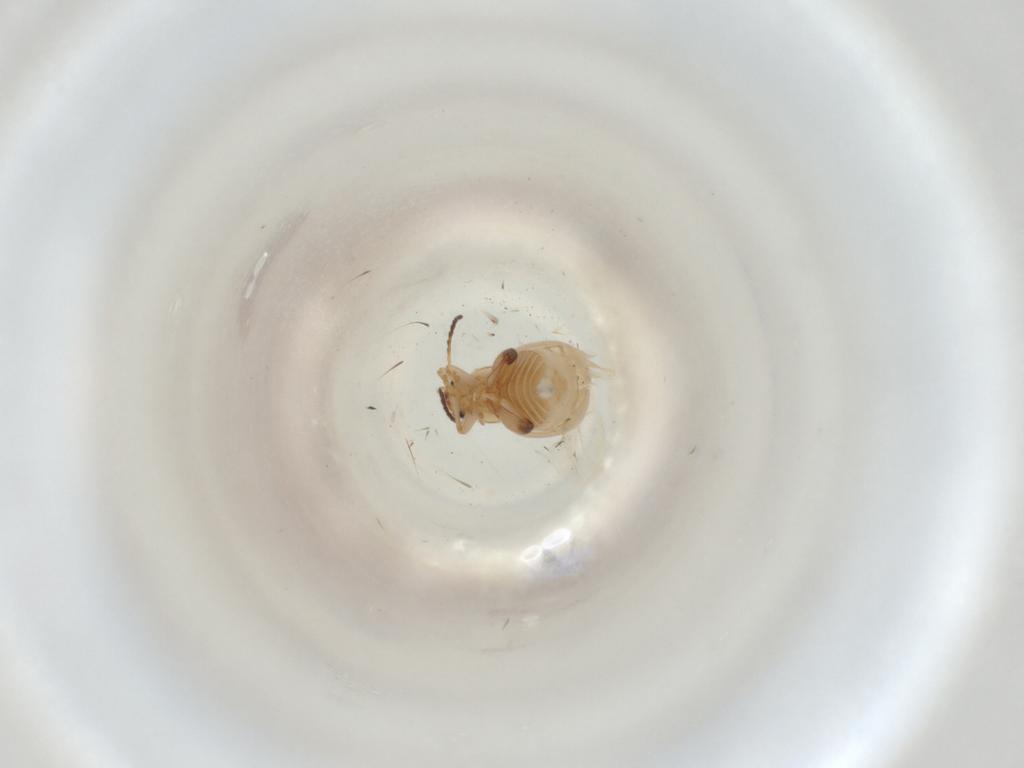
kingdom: Animalia
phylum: Arthropoda
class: Insecta
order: Coleoptera
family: Chrysomelidae
